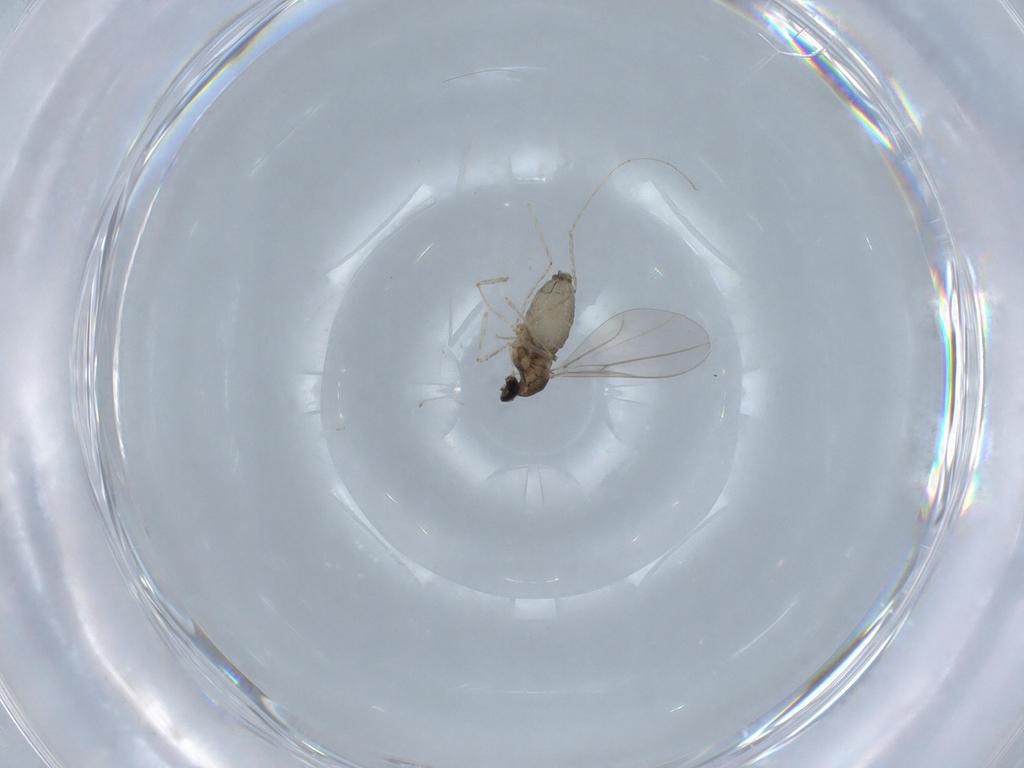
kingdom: Animalia
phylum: Arthropoda
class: Insecta
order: Diptera
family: Cecidomyiidae
